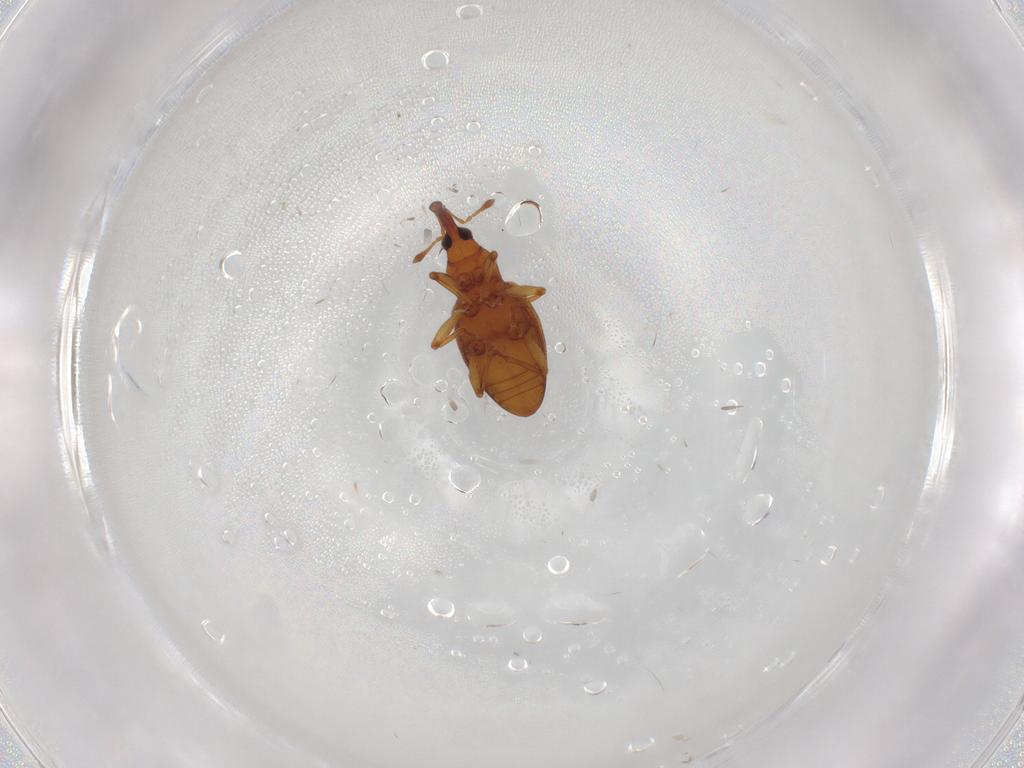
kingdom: Animalia
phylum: Arthropoda
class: Insecta
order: Coleoptera
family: Curculionidae
